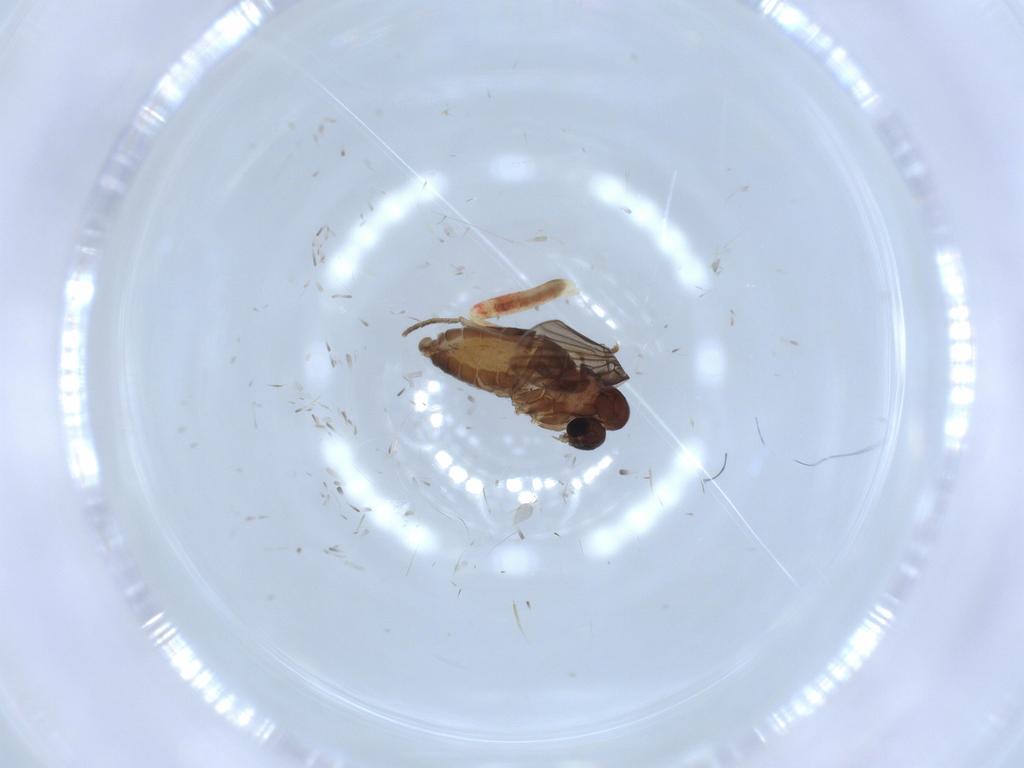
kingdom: Animalia
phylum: Arthropoda
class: Insecta
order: Diptera
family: Psychodidae
